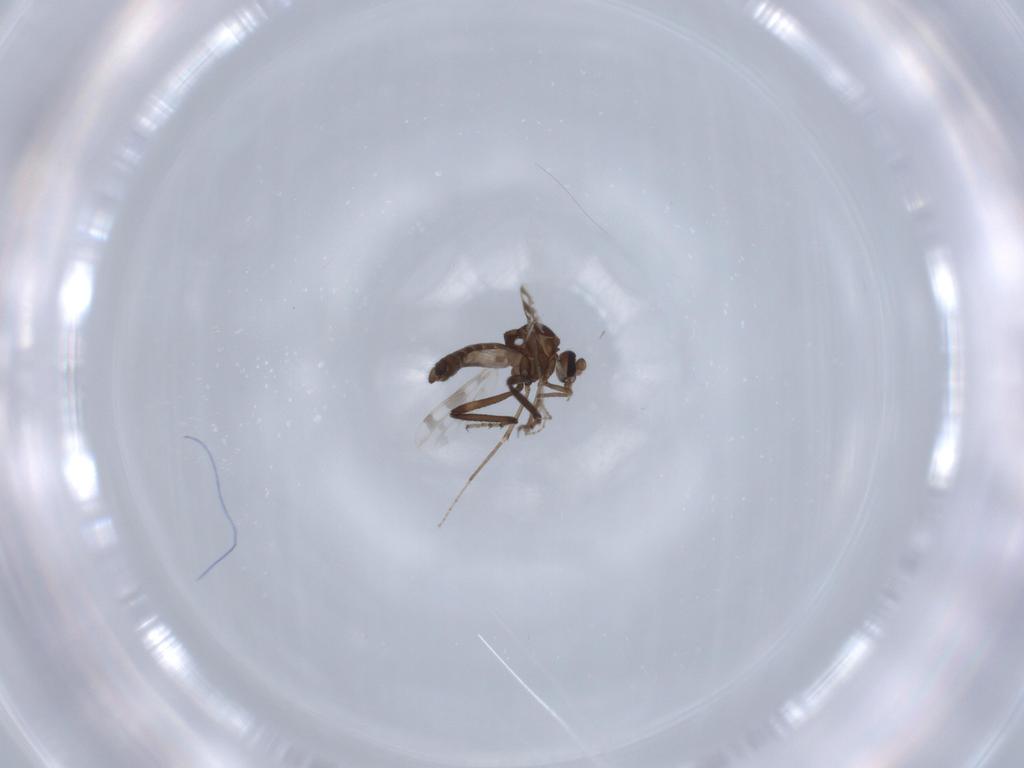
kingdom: Animalia
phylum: Arthropoda
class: Insecta
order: Diptera
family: Ceratopogonidae
